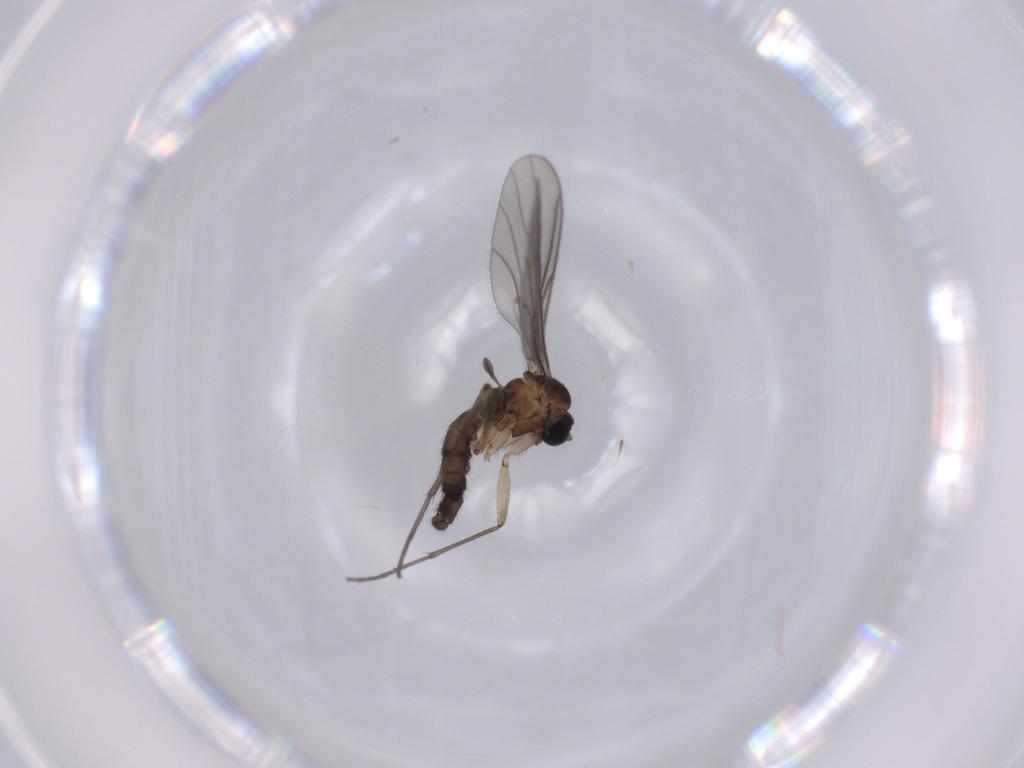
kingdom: Animalia
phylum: Arthropoda
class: Insecta
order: Diptera
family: Sciaridae
